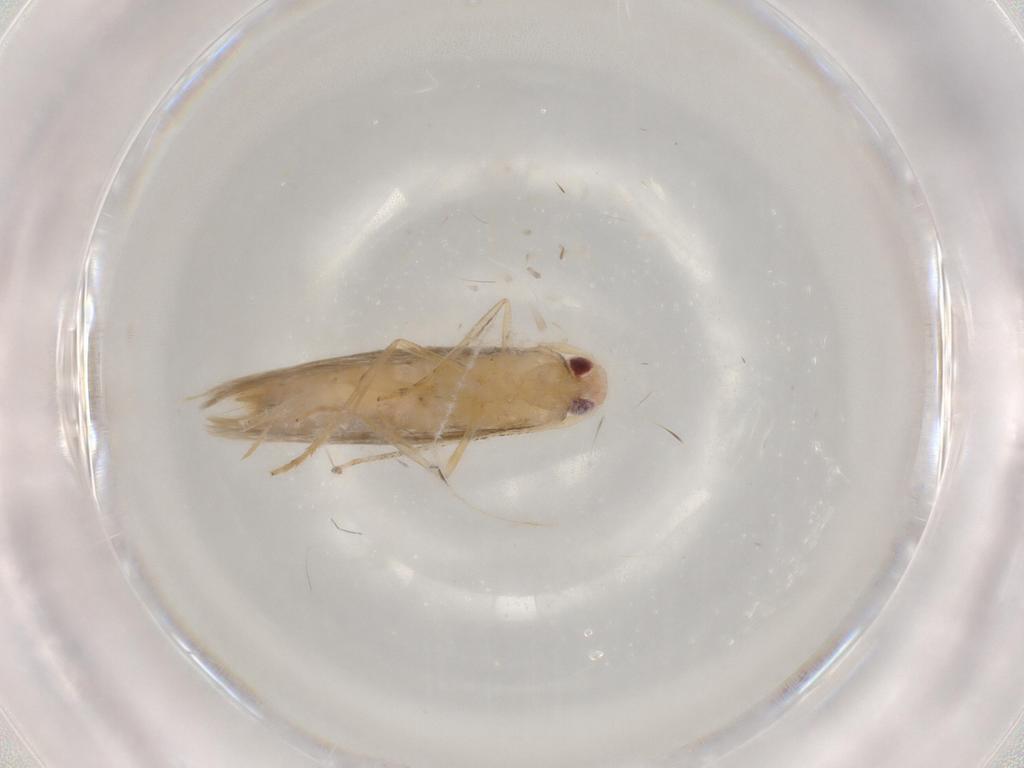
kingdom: Animalia
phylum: Arthropoda
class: Insecta
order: Lepidoptera
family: Cosmopterigidae
